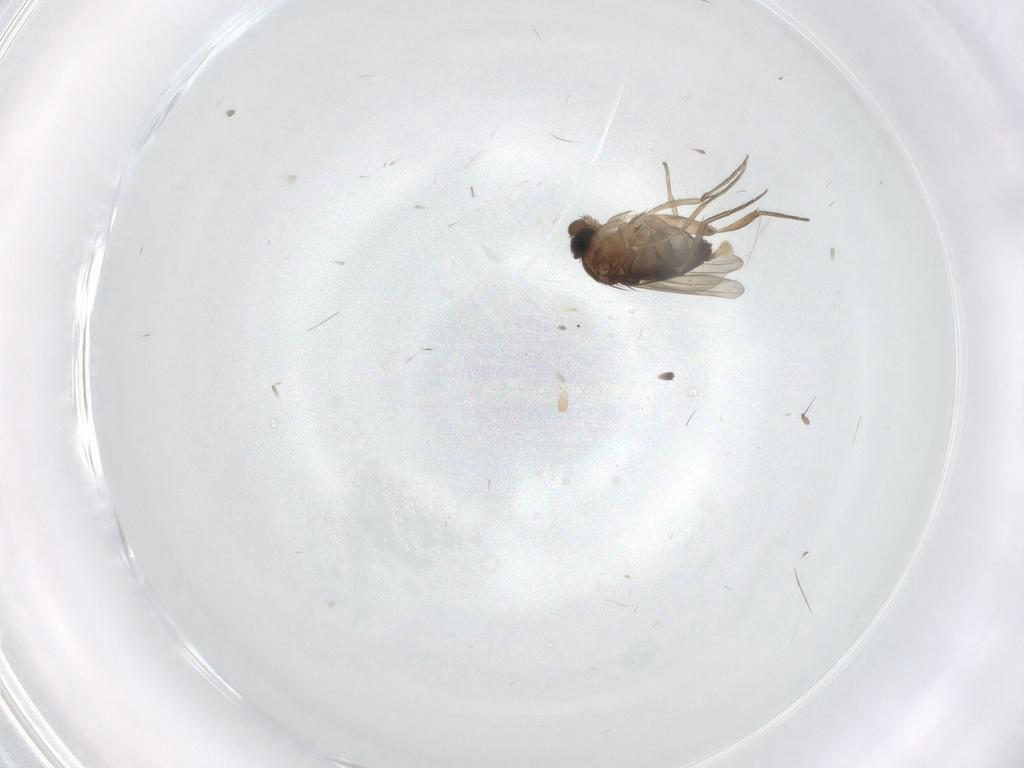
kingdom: Animalia
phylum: Arthropoda
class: Insecta
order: Diptera
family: Phoridae
